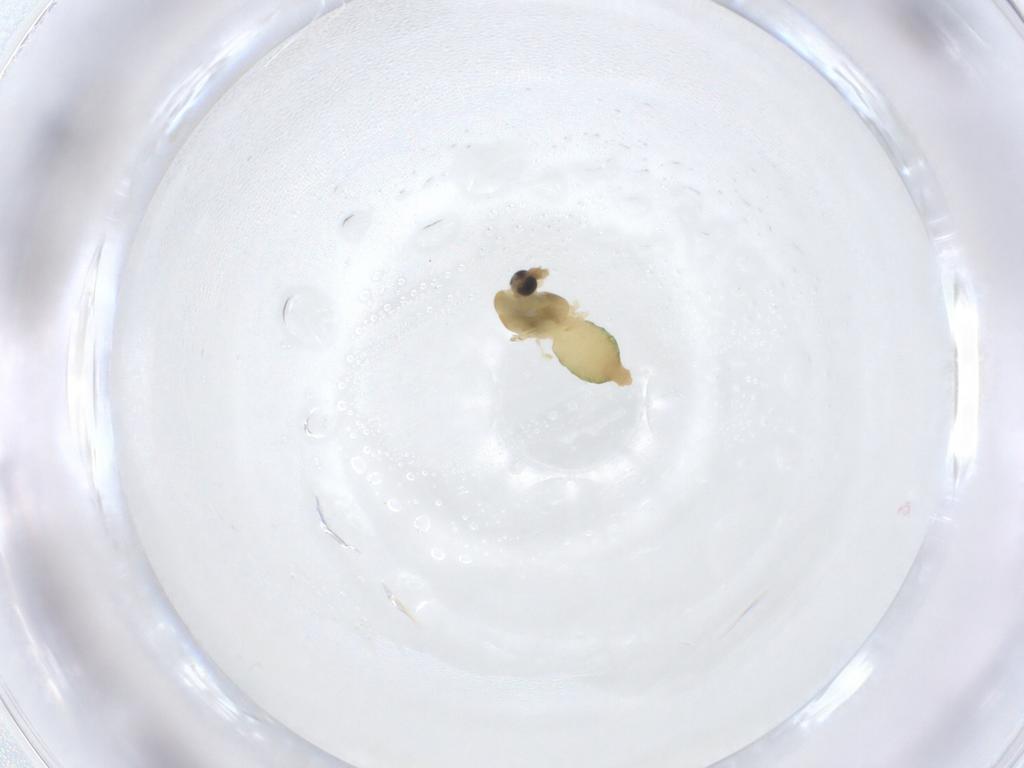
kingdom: Animalia
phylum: Arthropoda
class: Insecta
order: Diptera
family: Chironomidae
